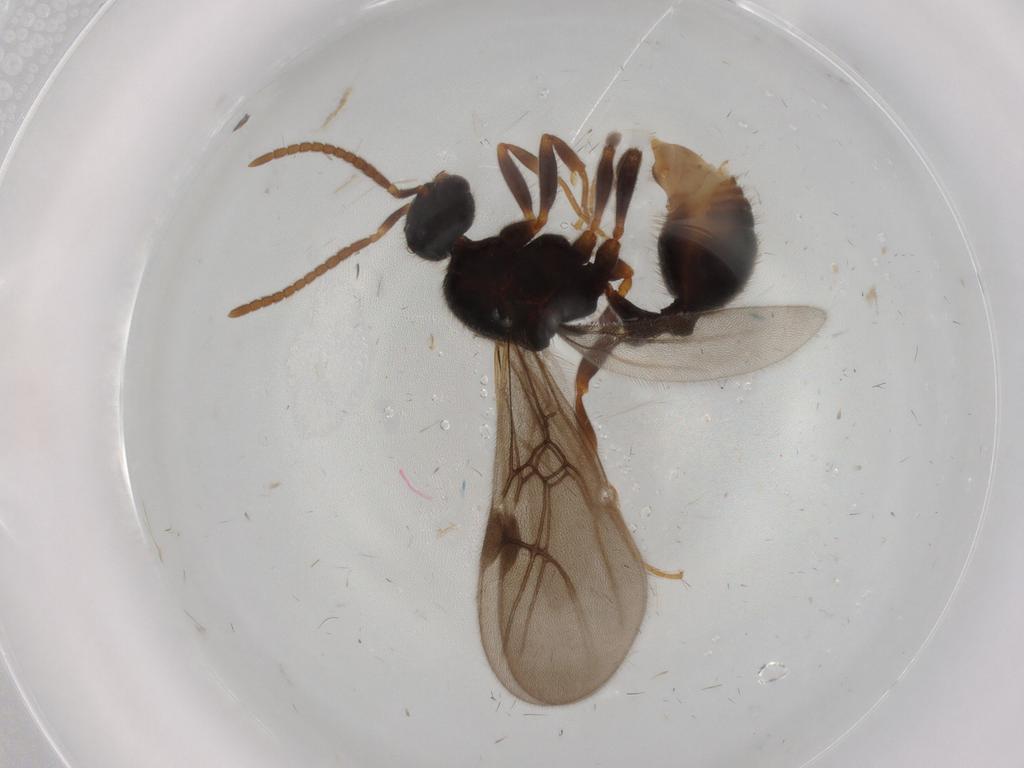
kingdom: Animalia
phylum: Arthropoda
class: Insecta
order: Hymenoptera
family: Formicidae
